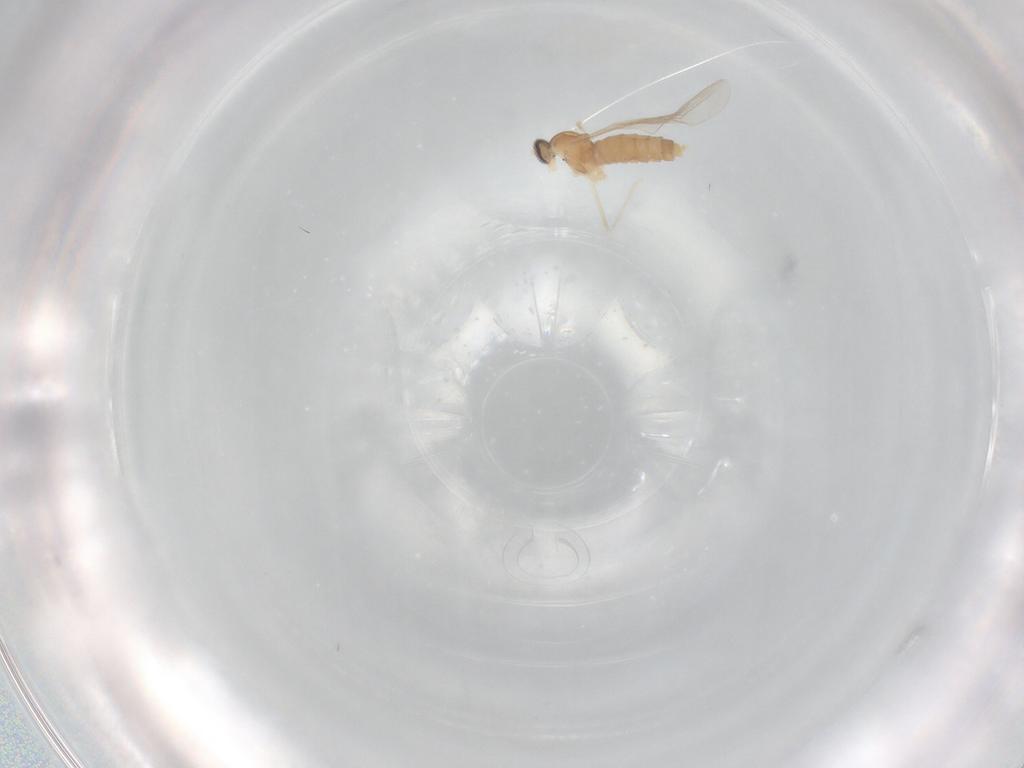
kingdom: Animalia
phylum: Arthropoda
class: Insecta
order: Diptera
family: Cecidomyiidae
